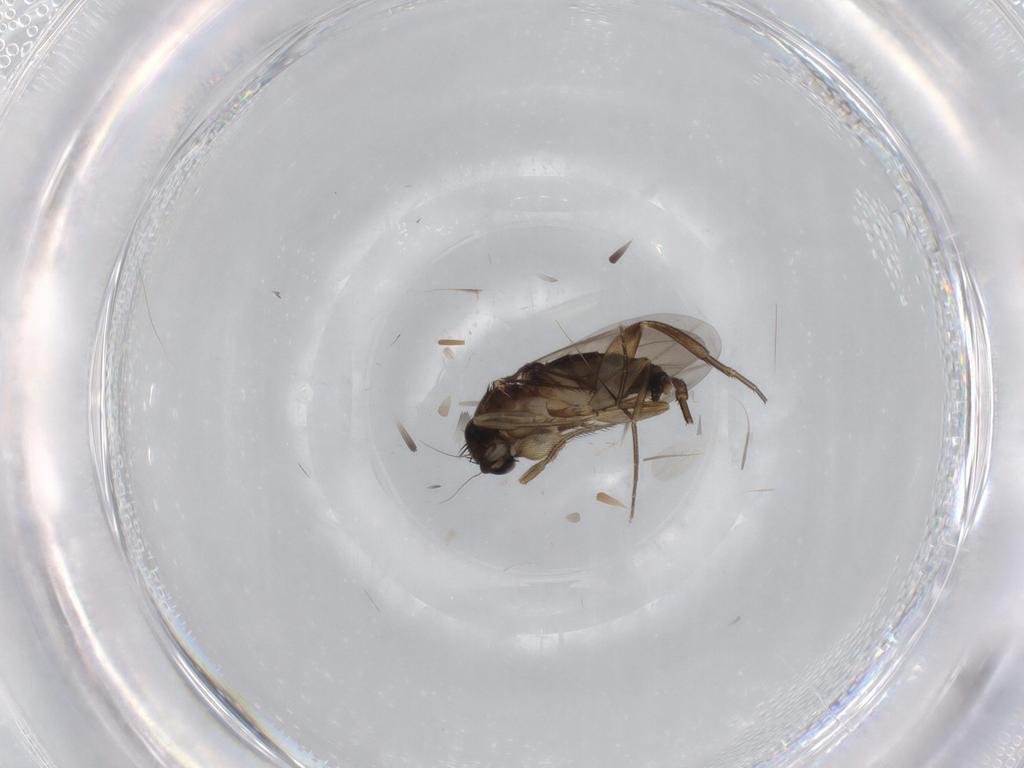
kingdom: Animalia
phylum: Arthropoda
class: Insecta
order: Diptera
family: Phoridae
